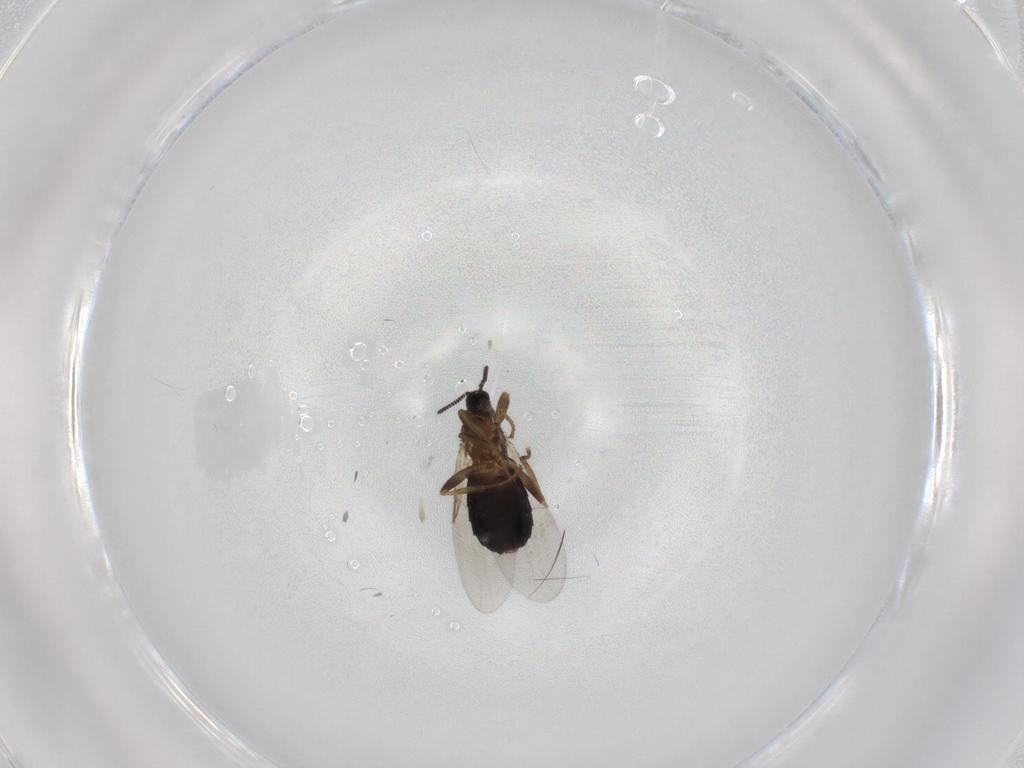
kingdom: Animalia
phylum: Arthropoda
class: Insecta
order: Diptera
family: Scatopsidae
